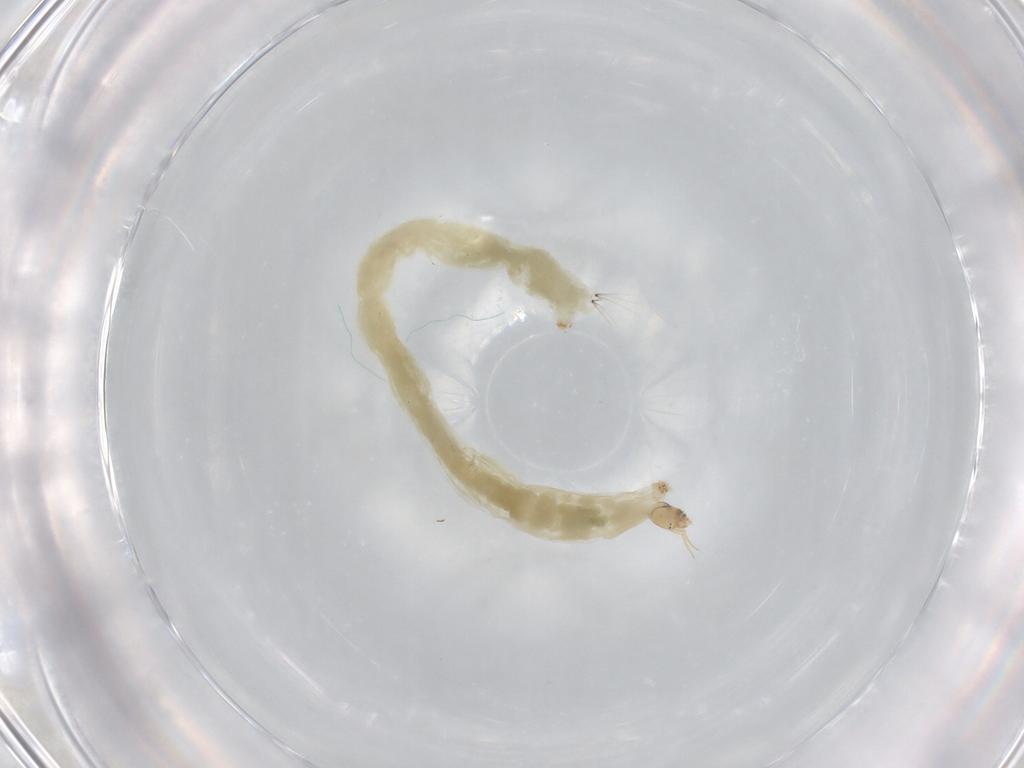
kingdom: Animalia
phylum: Arthropoda
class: Insecta
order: Diptera
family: Chironomidae
